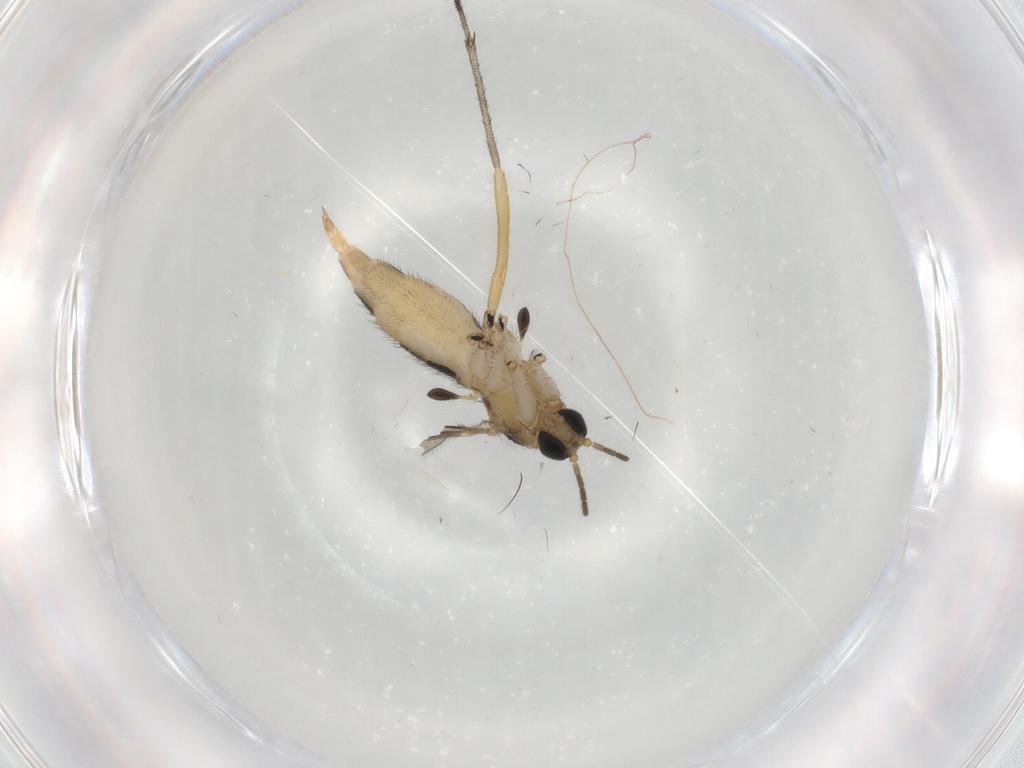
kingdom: Animalia
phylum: Arthropoda
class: Insecta
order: Diptera
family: Sciaridae
